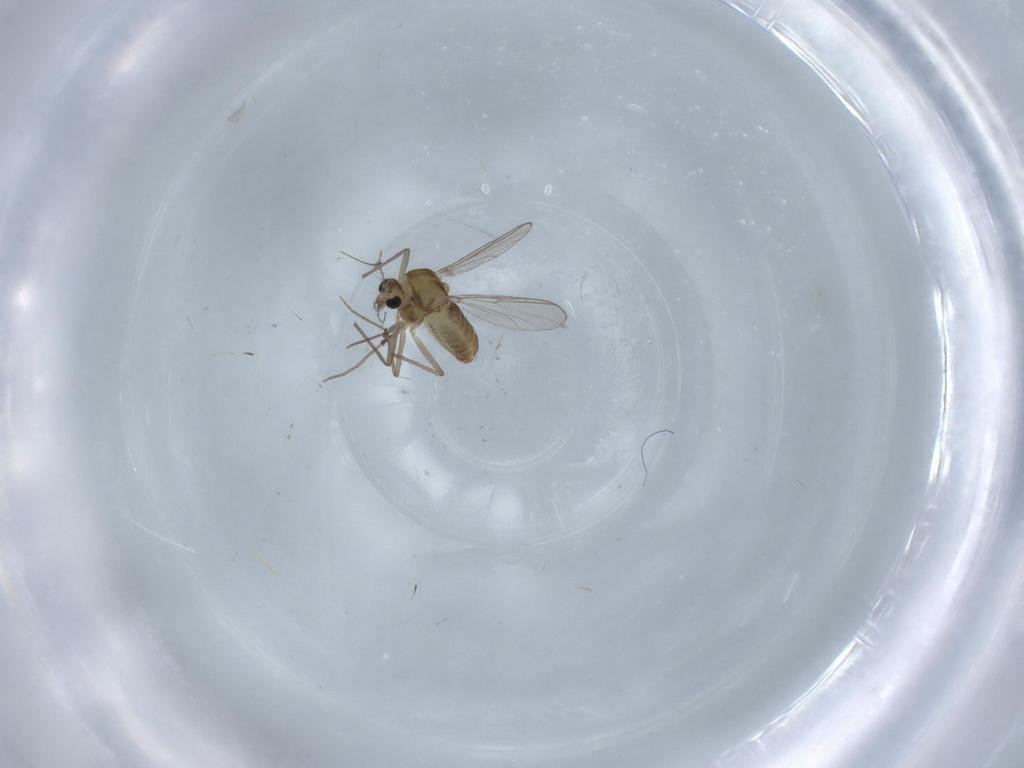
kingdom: Animalia
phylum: Arthropoda
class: Insecta
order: Diptera
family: Chironomidae
